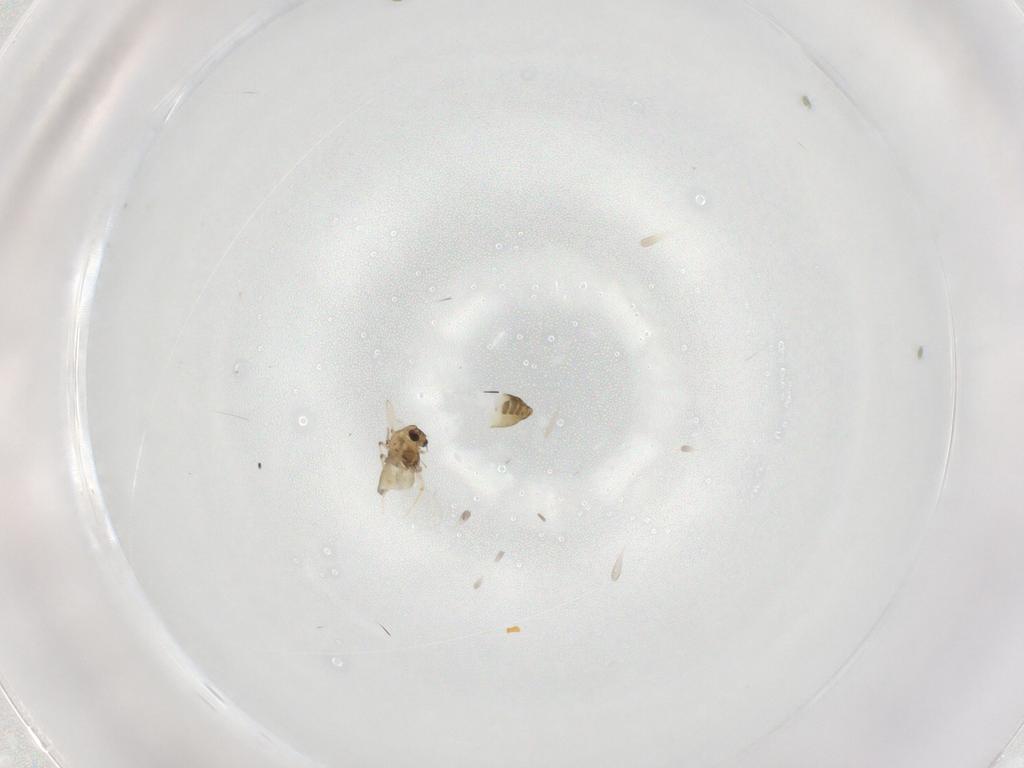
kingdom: Animalia
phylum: Arthropoda
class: Insecta
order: Diptera
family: Chironomidae
